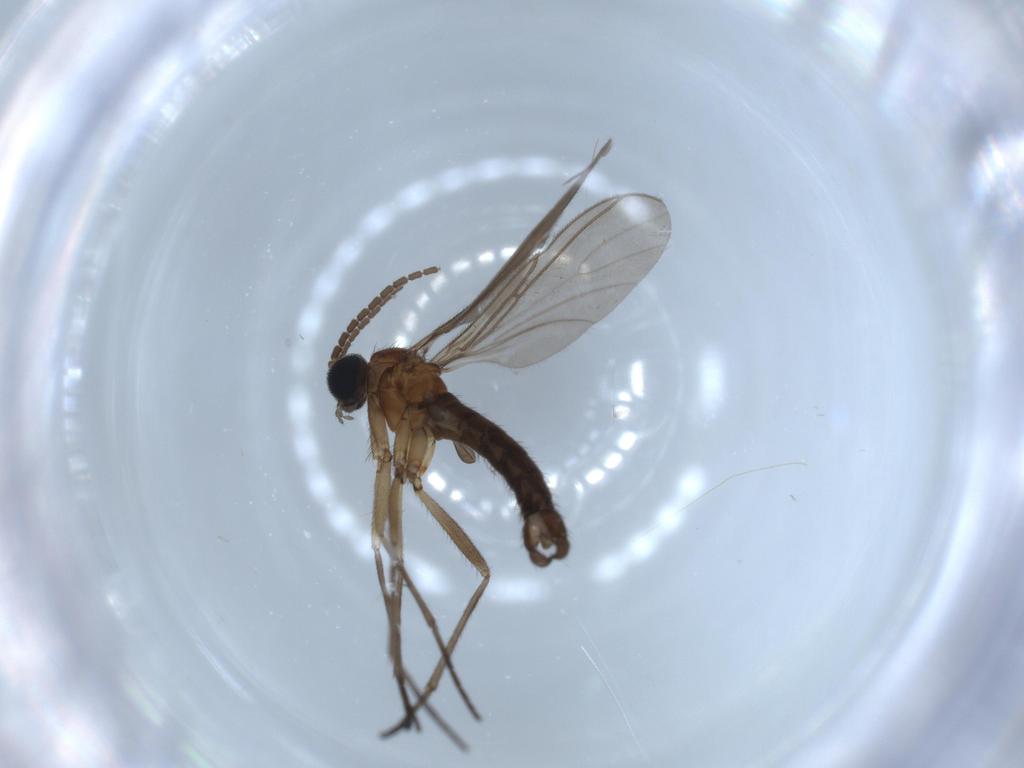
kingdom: Animalia
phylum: Arthropoda
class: Insecta
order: Diptera
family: Sciaridae
